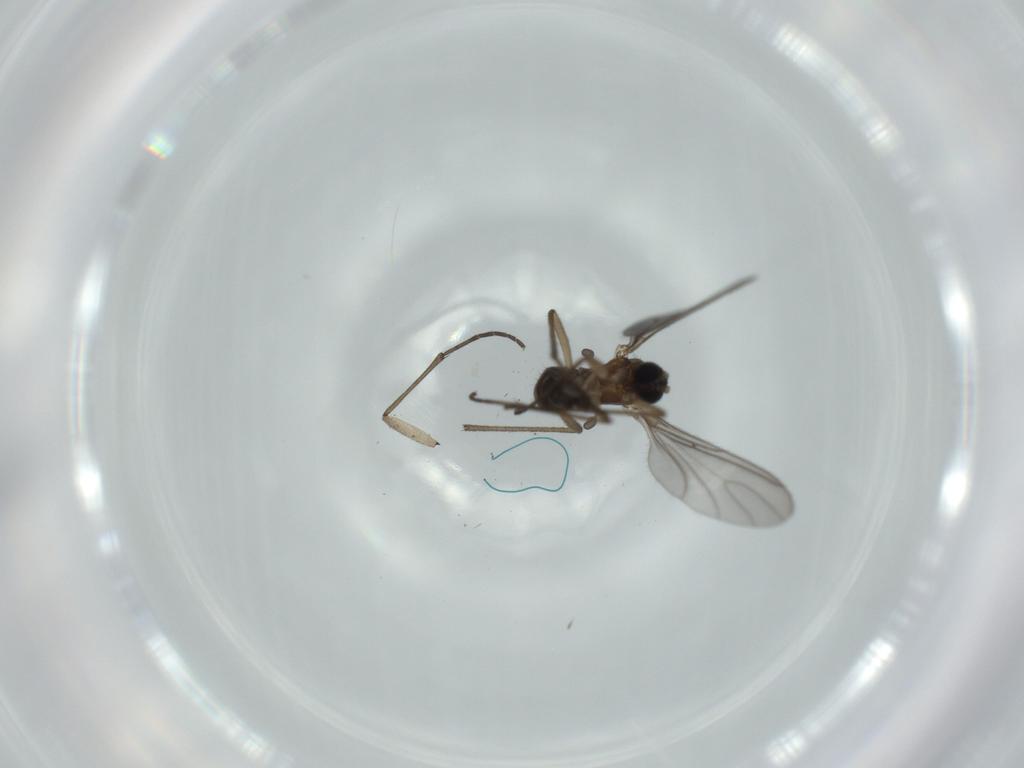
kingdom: Animalia
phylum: Arthropoda
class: Insecta
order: Diptera
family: Sciaridae
